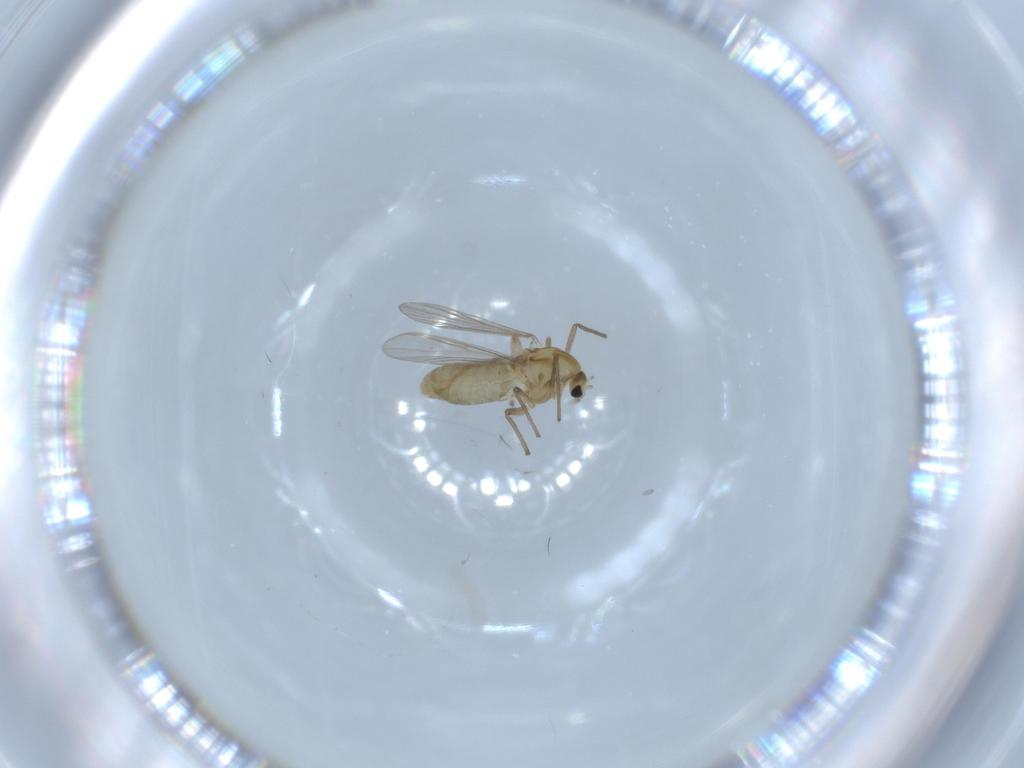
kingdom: Animalia
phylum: Arthropoda
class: Insecta
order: Diptera
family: Chironomidae
